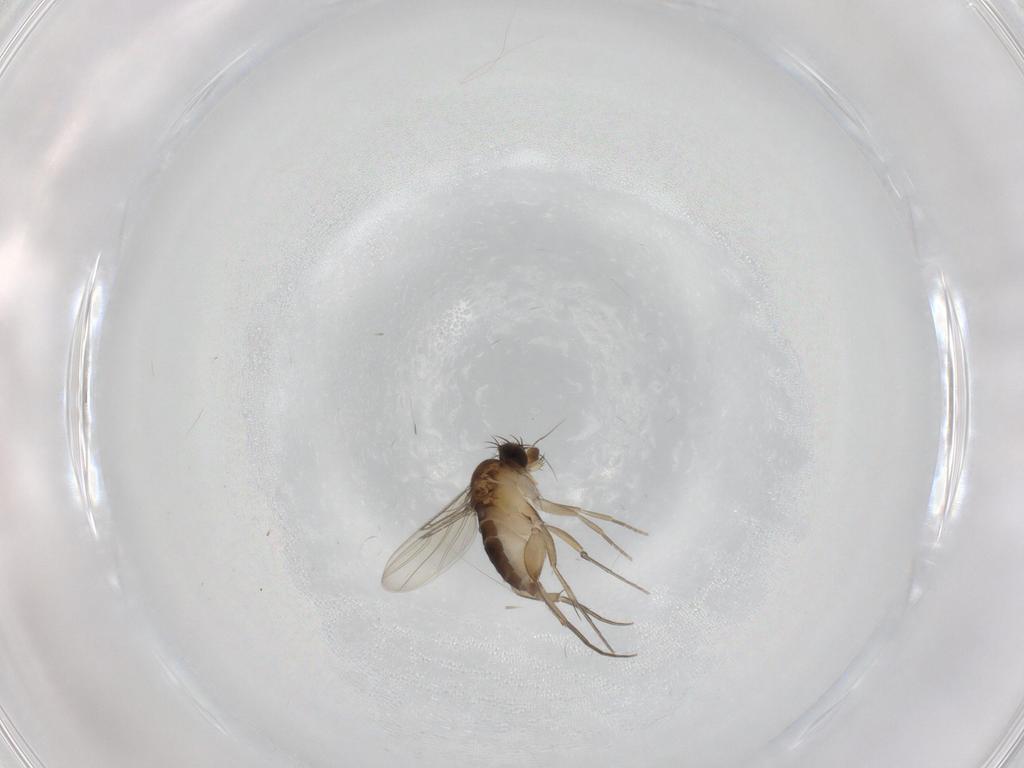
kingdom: Animalia
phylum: Arthropoda
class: Insecta
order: Diptera
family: Phoridae
